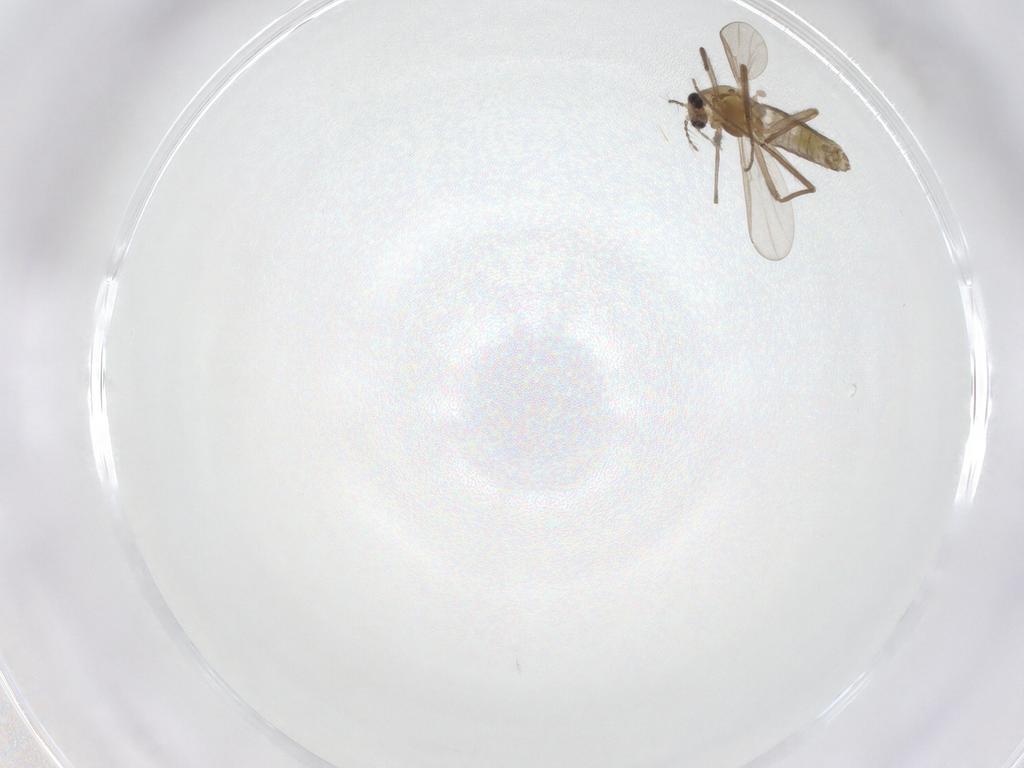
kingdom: Animalia
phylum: Arthropoda
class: Insecta
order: Diptera
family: Chironomidae
